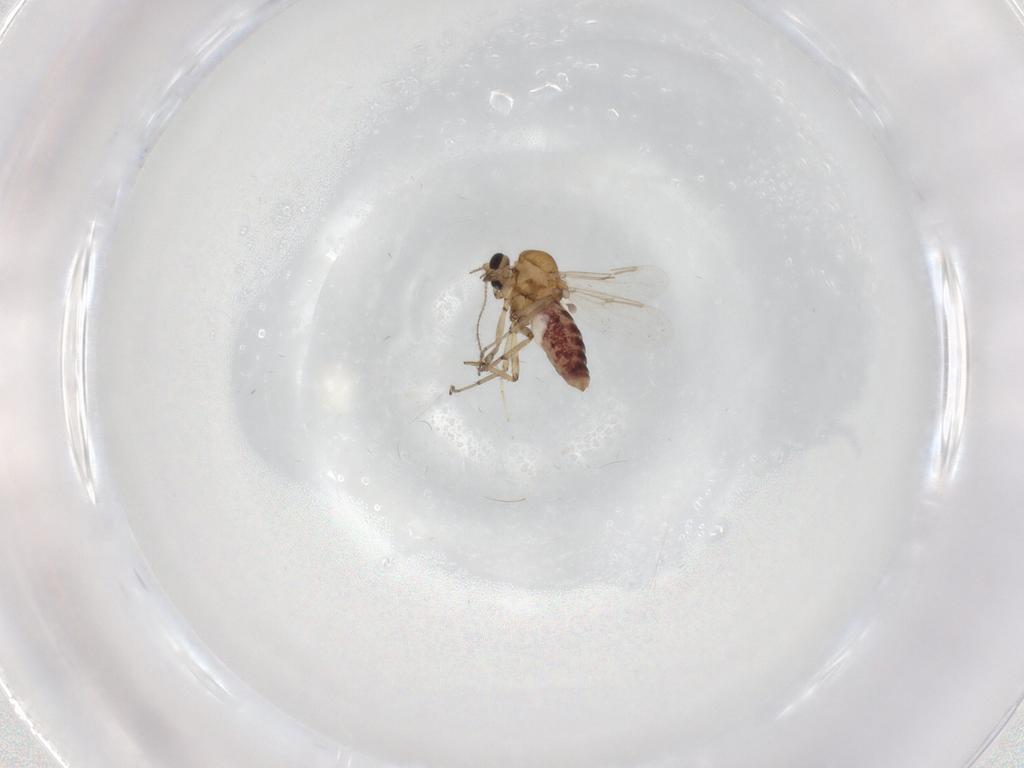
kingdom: Animalia
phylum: Arthropoda
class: Insecta
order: Diptera
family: Ceratopogonidae
